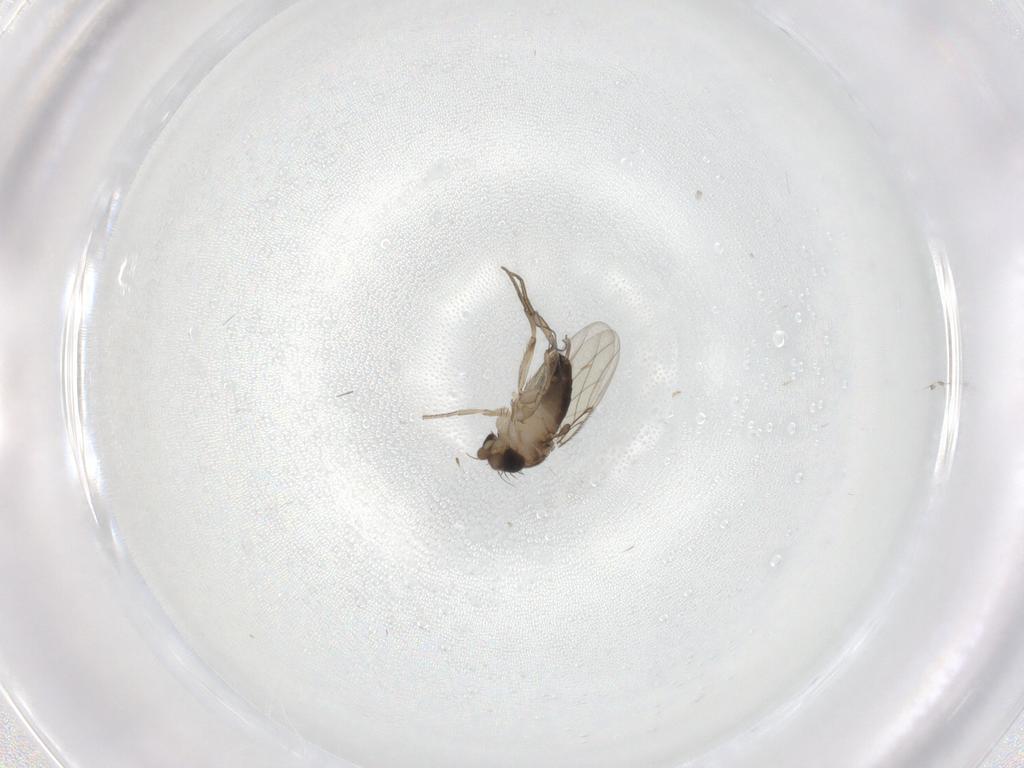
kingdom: Animalia
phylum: Arthropoda
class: Insecta
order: Diptera
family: Chironomidae
